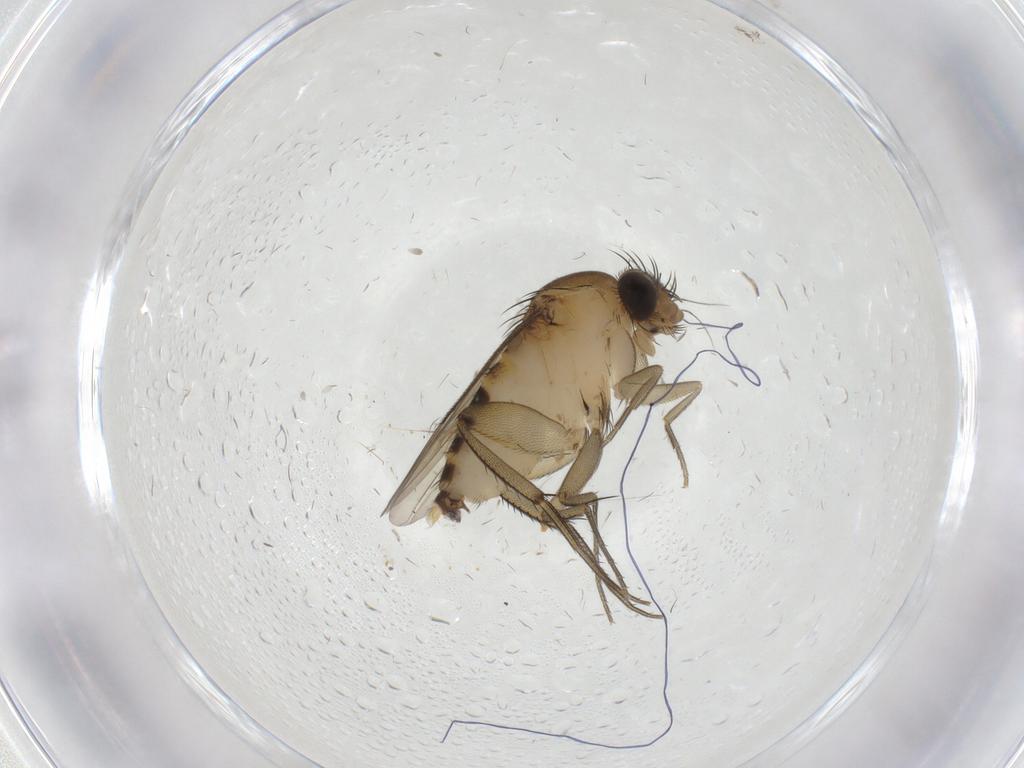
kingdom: Animalia
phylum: Arthropoda
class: Insecta
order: Diptera
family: Phoridae
